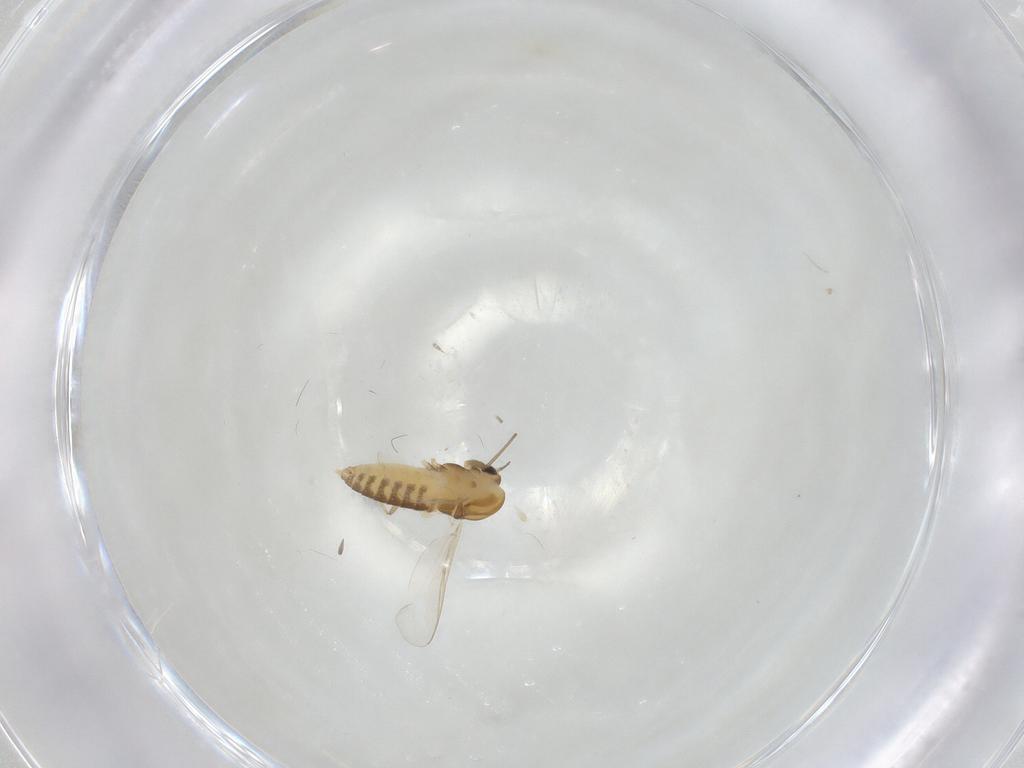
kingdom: Animalia
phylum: Arthropoda
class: Insecta
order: Diptera
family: Chironomidae
